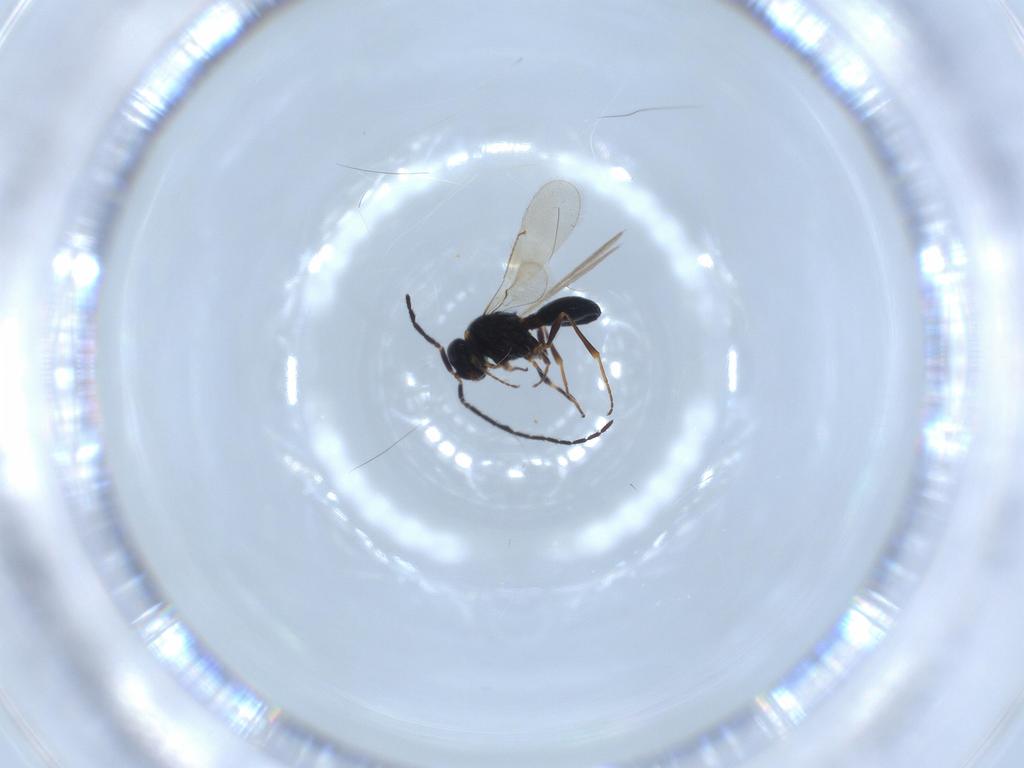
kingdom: Animalia
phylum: Arthropoda
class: Insecta
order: Hymenoptera
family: Scelionidae
